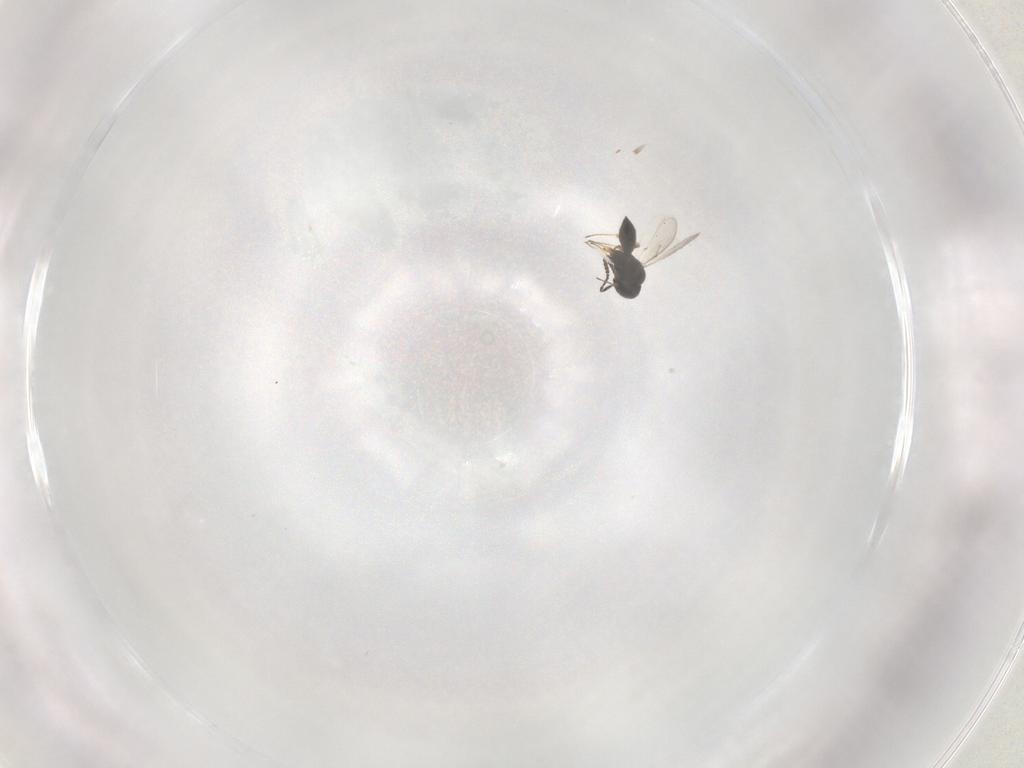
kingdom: Animalia
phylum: Arthropoda
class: Insecta
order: Hymenoptera
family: Scelionidae
